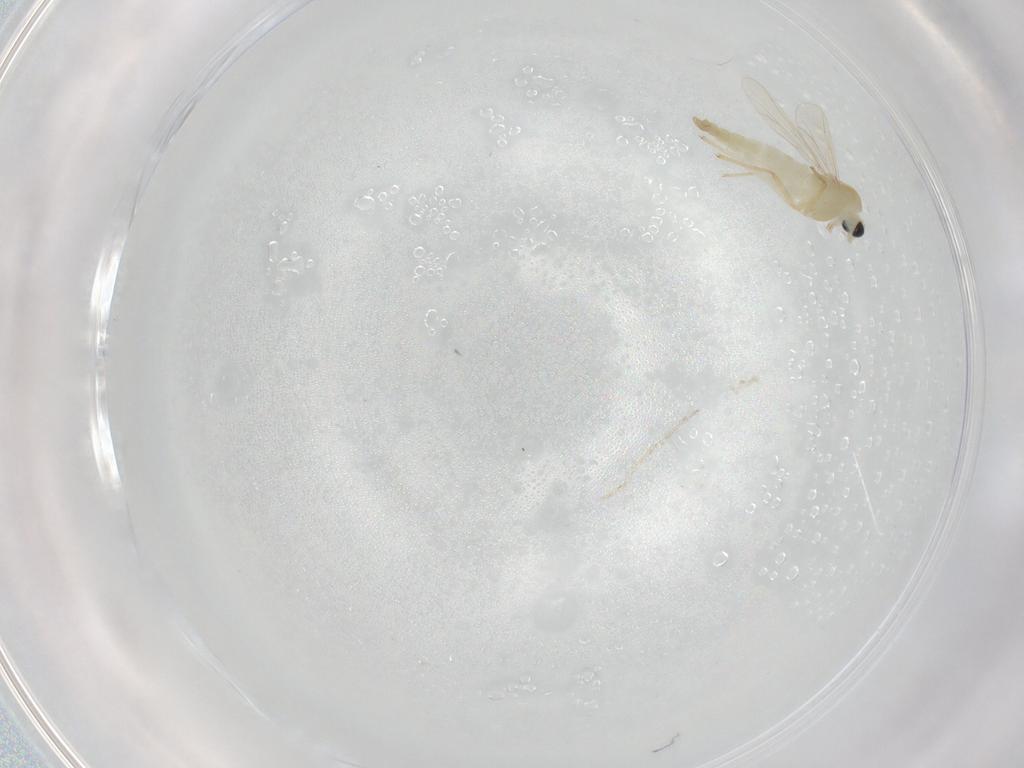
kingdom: Animalia
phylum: Arthropoda
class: Insecta
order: Diptera
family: Chironomidae
